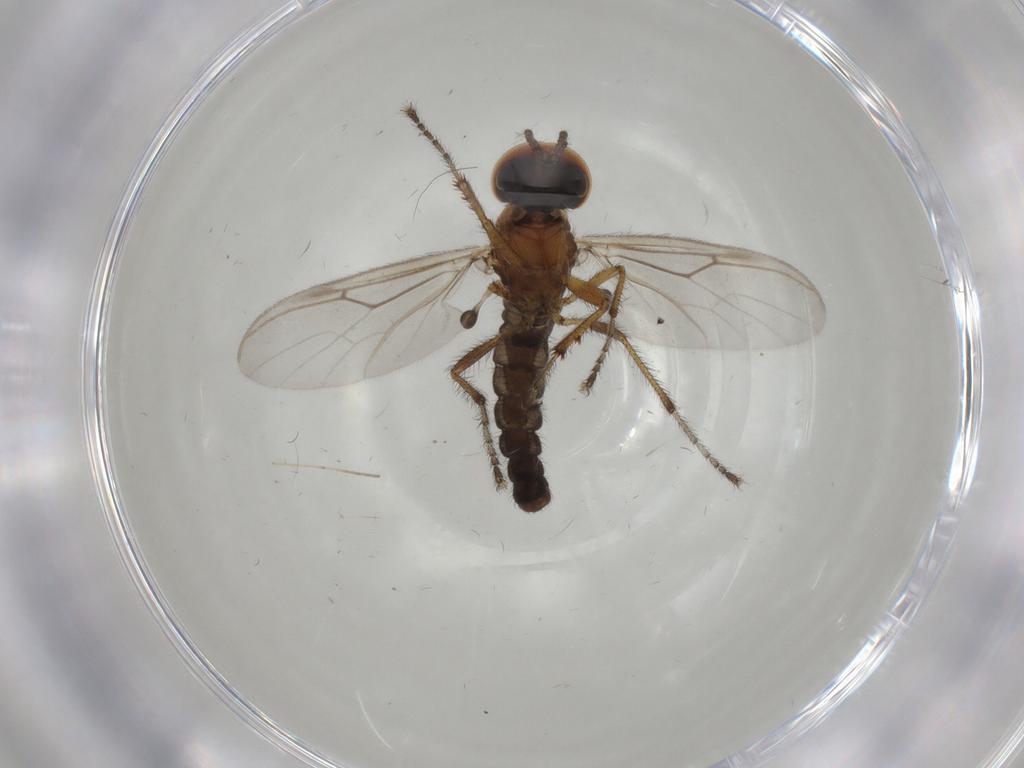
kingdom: Animalia
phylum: Arthropoda
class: Insecta
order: Diptera
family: Bibionidae
